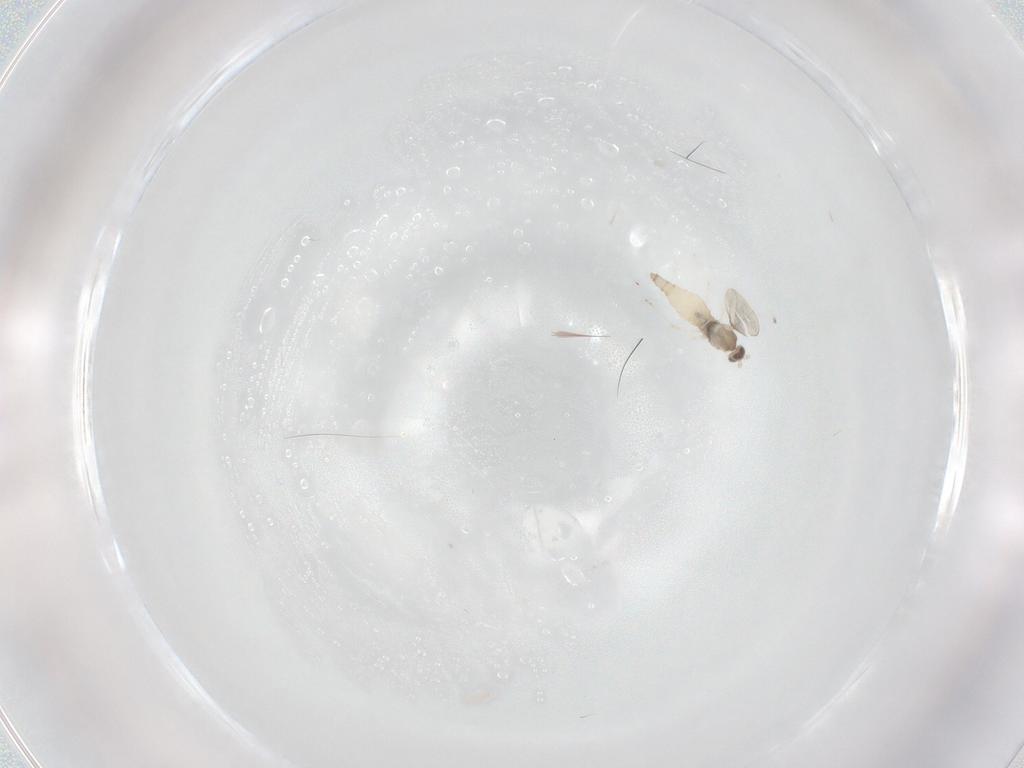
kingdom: Animalia
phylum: Arthropoda
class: Insecta
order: Diptera
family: Cecidomyiidae
